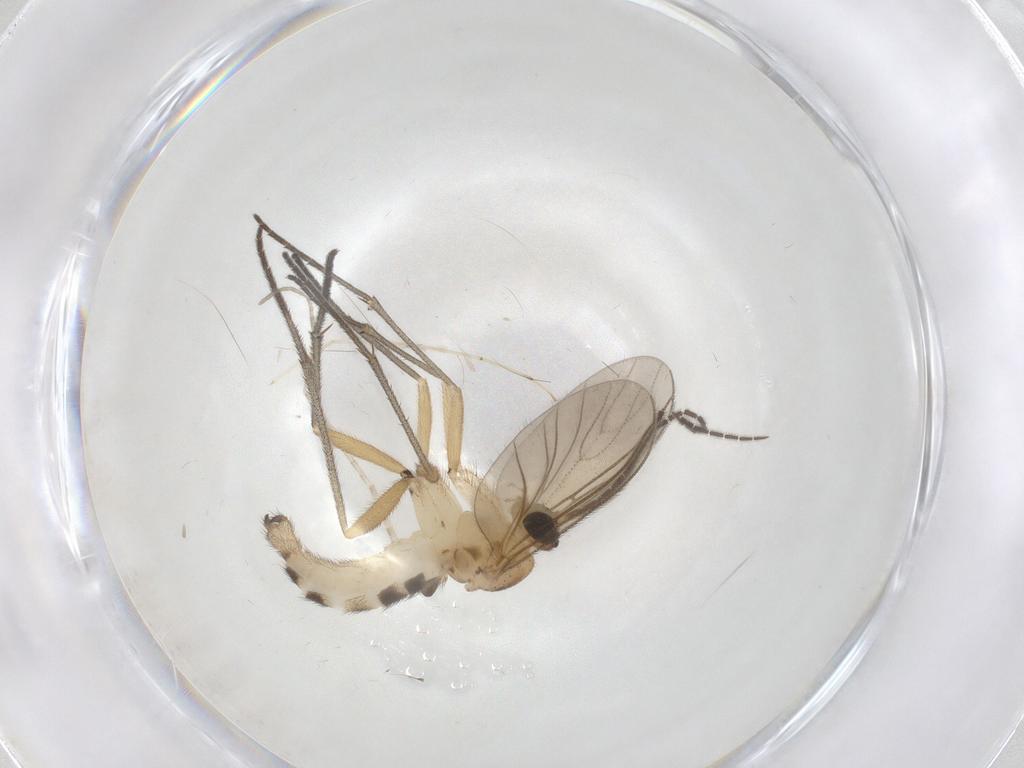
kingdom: Animalia
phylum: Arthropoda
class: Insecta
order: Diptera
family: Sciaridae
